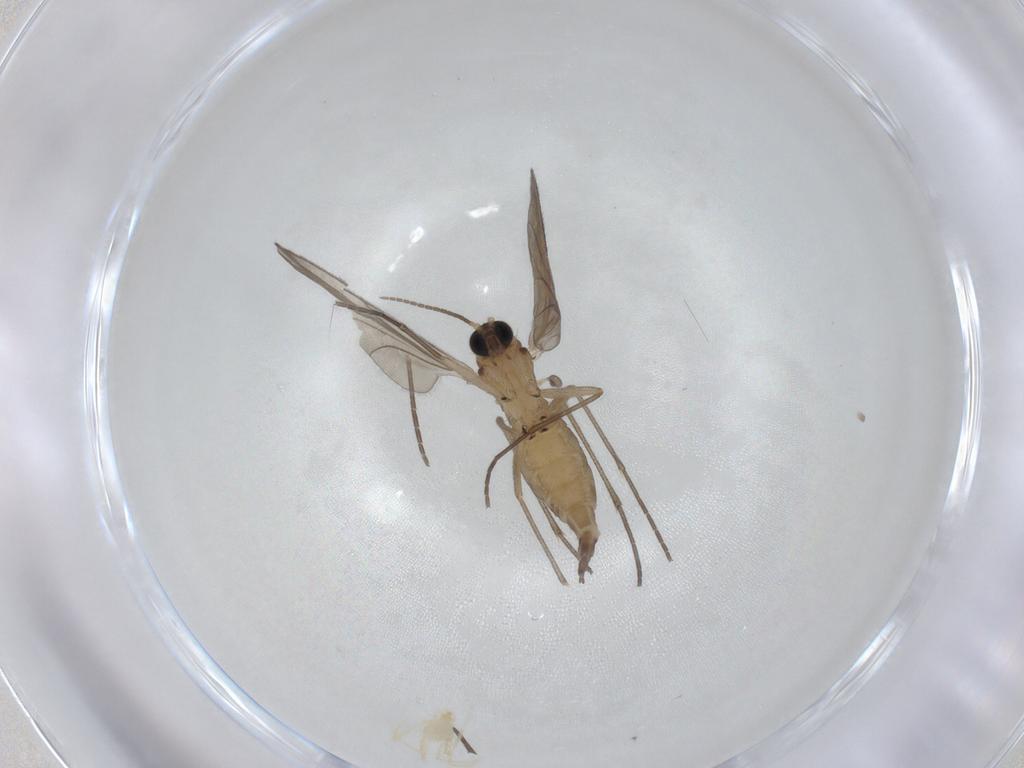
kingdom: Animalia
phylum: Arthropoda
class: Insecta
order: Diptera
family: Sciaridae
